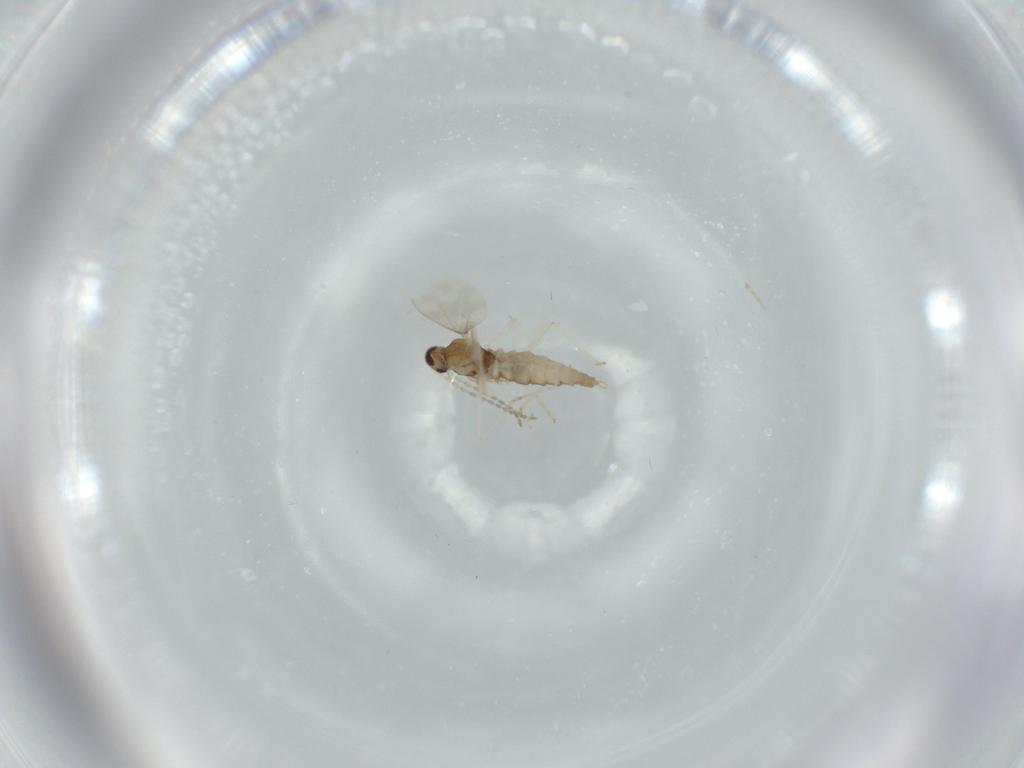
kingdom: Animalia
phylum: Arthropoda
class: Insecta
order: Diptera
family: Cecidomyiidae
